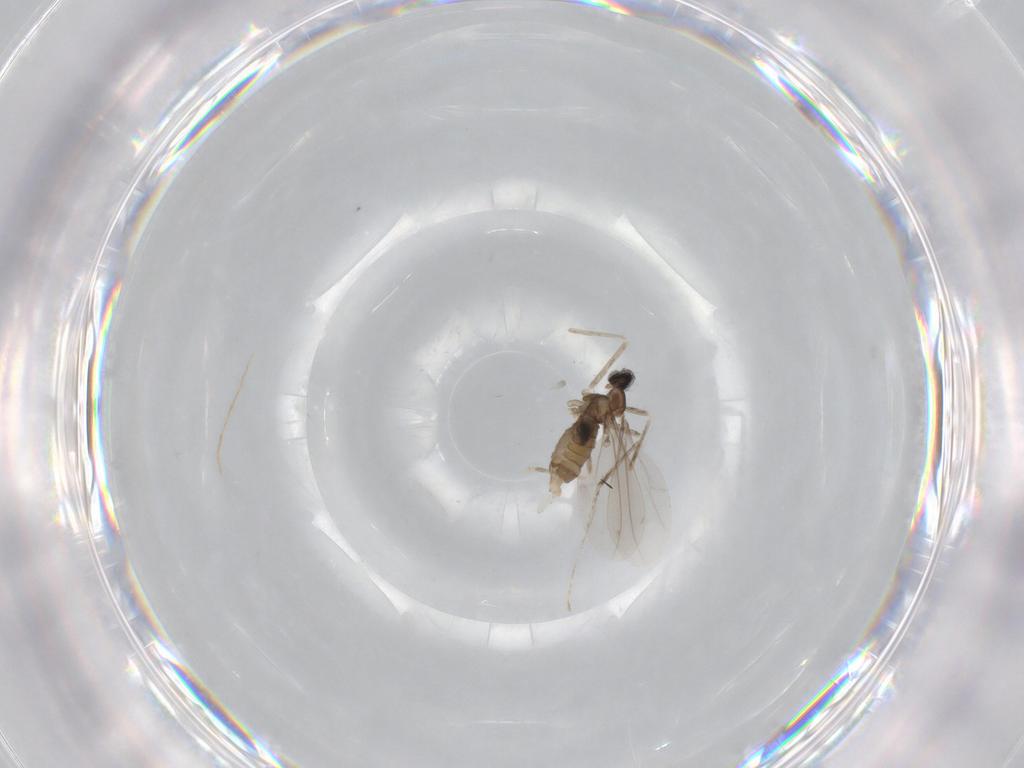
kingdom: Animalia
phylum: Arthropoda
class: Insecta
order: Diptera
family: Cecidomyiidae
